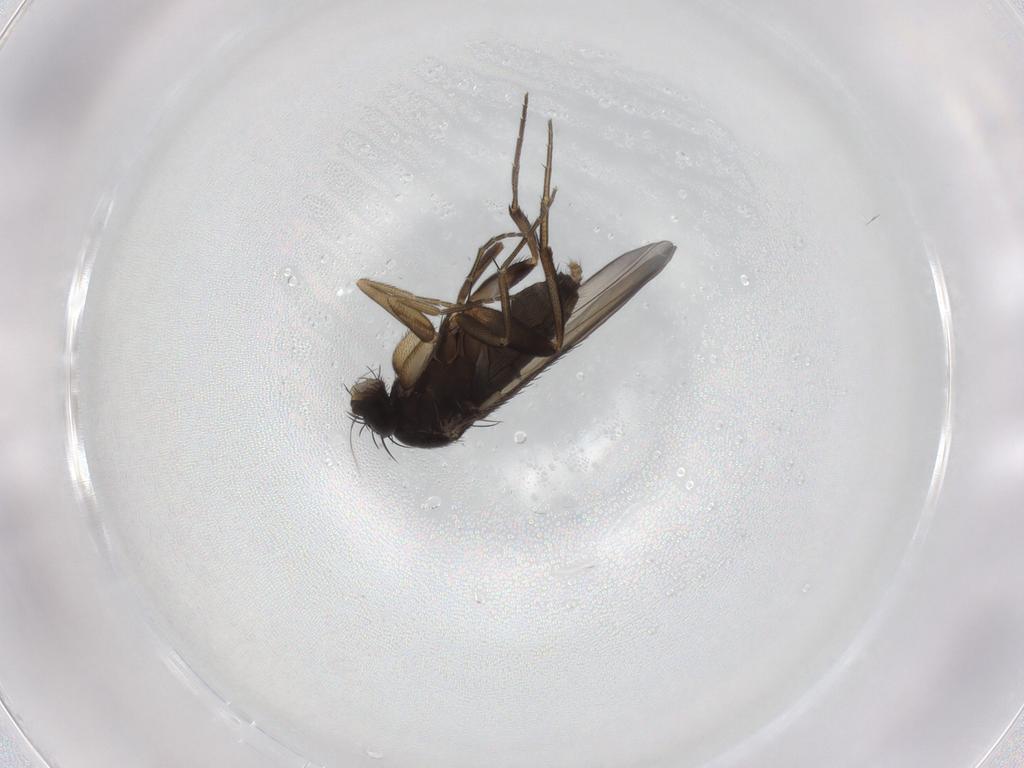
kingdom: Animalia
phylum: Arthropoda
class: Insecta
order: Diptera
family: Phoridae
